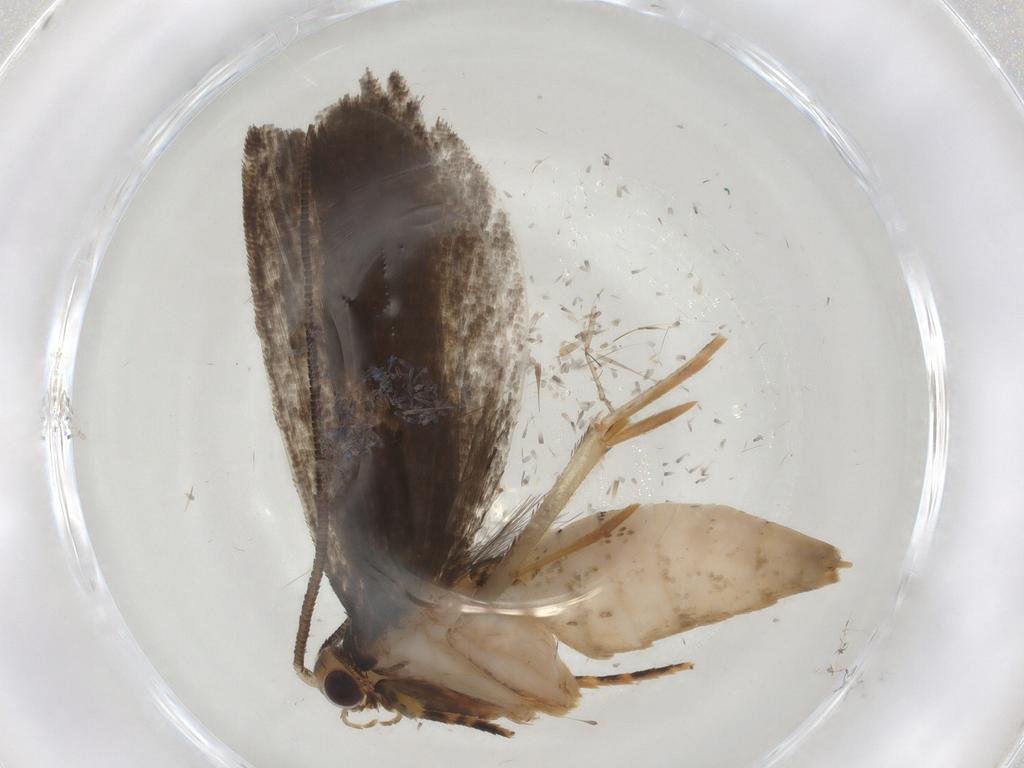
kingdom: Animalia
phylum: Arthropoda
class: Insecta
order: Lepidoptera
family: Tineidae
